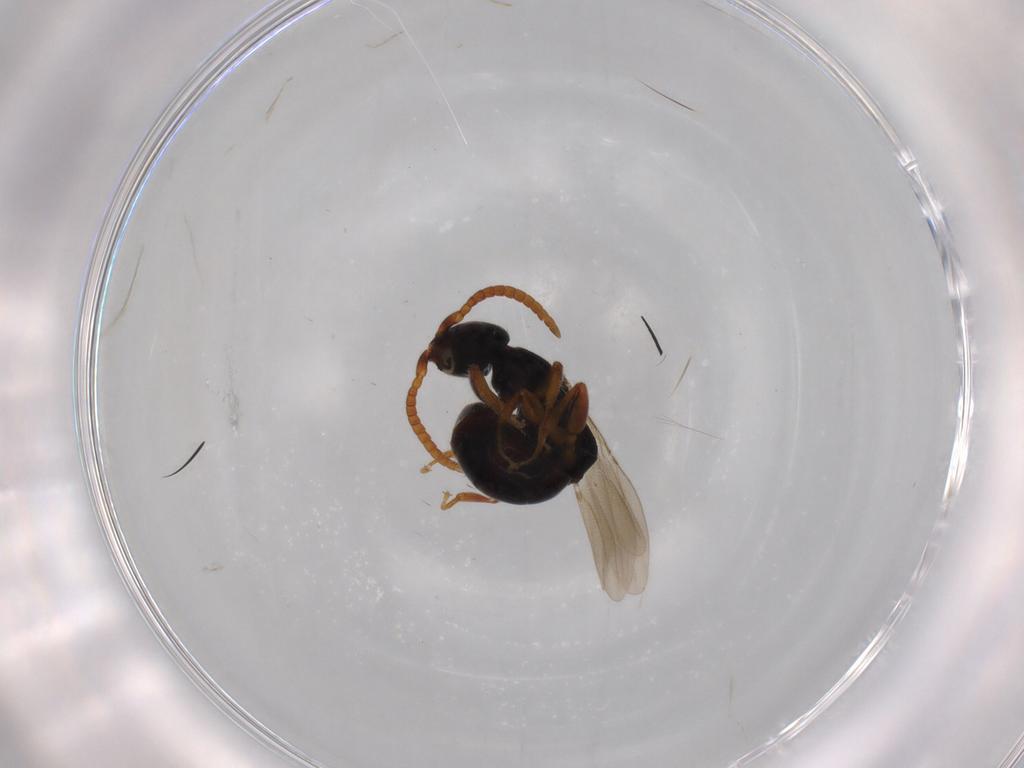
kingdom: Animalia
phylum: Arthropoda
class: Insecta
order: Hymenoptera
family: Bethylidae
